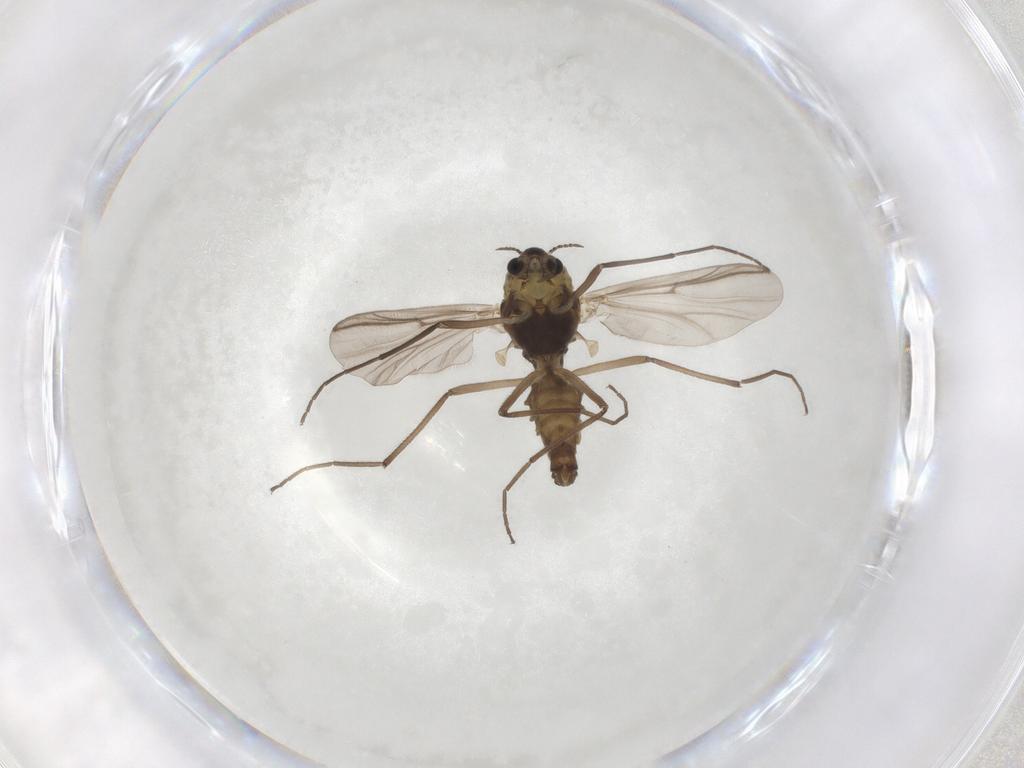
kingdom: Animalia
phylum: Arthropoda
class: Insecta
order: Diptera
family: Chironomidae
